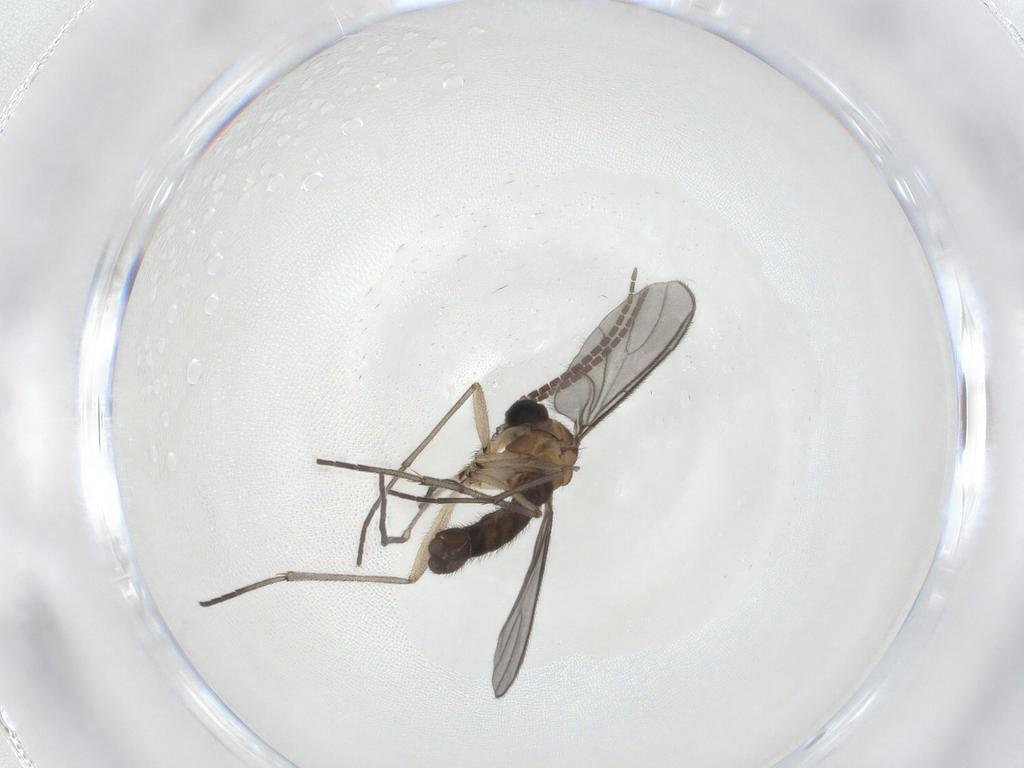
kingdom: Animalia
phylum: Arthropoda
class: Insecta
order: Diptera
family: Sciaridae
